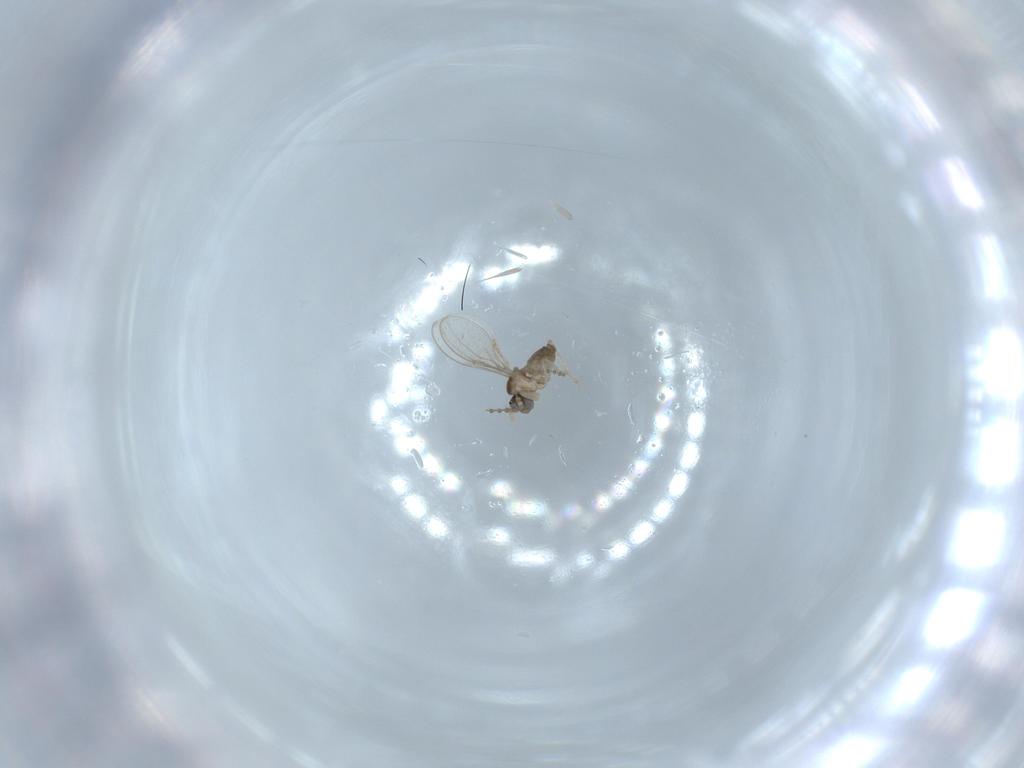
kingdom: Animalia
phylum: Arthropoda
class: Insecta
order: Diptera
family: Cecidomyiidae
